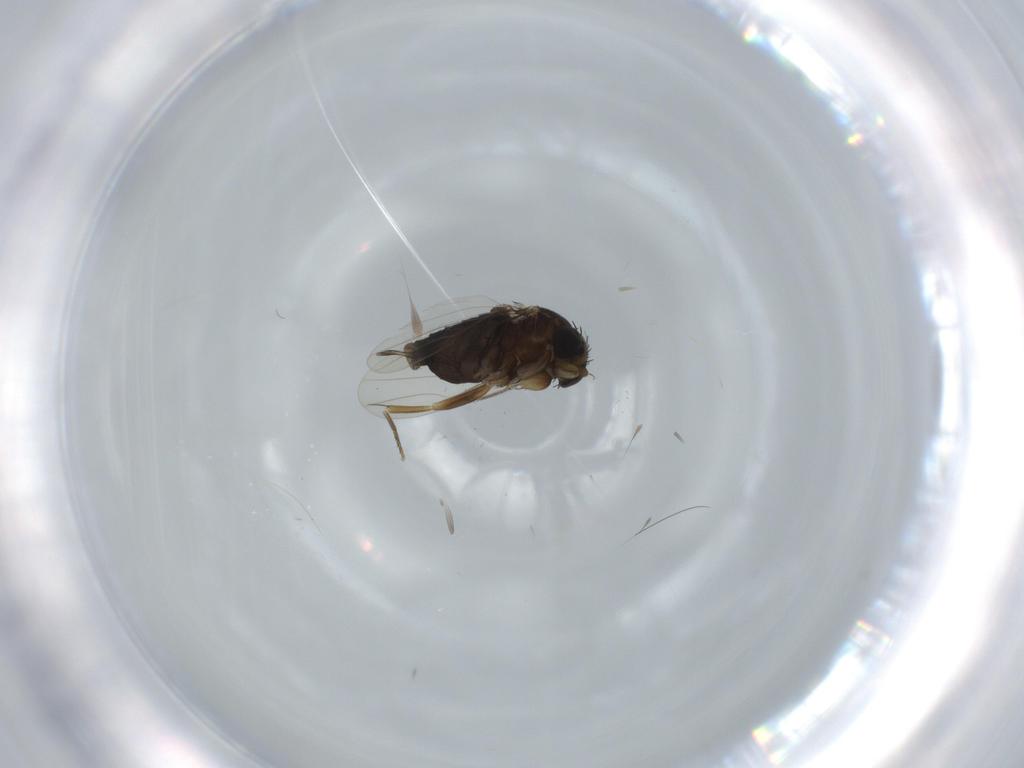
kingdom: Animalia
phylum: Arthropoda
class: Insecta
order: Diptera
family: Phoridae
